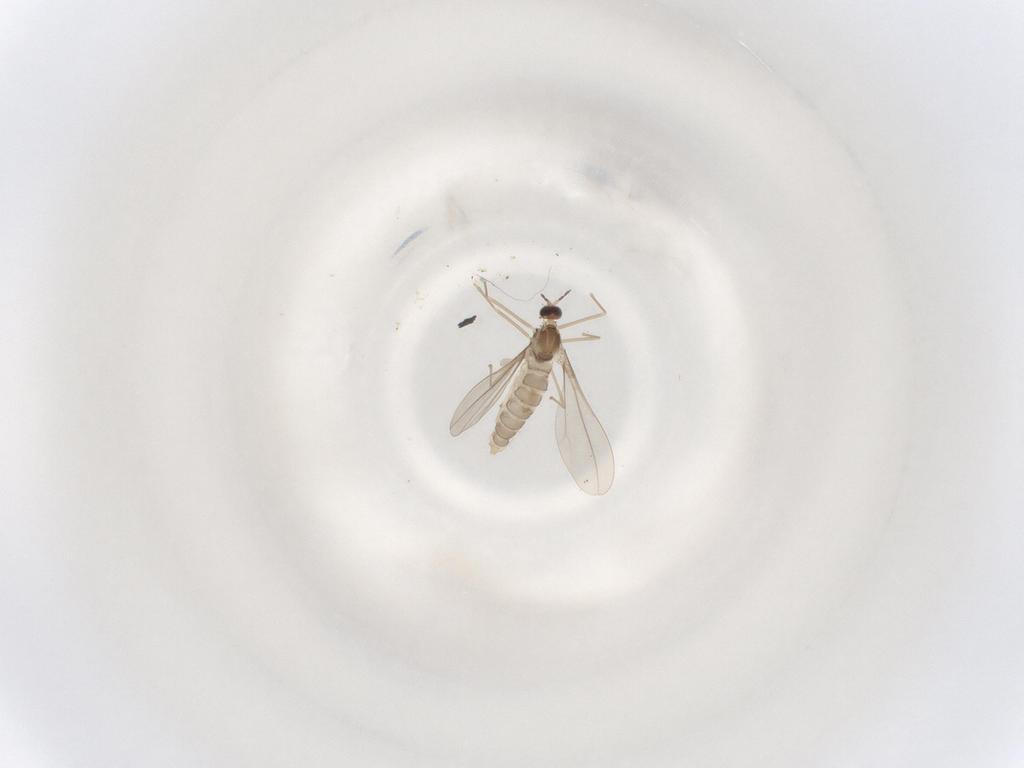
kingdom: Animalia
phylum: Arthropoda
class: Insecta
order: Diptera
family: Cecidomyiidae
